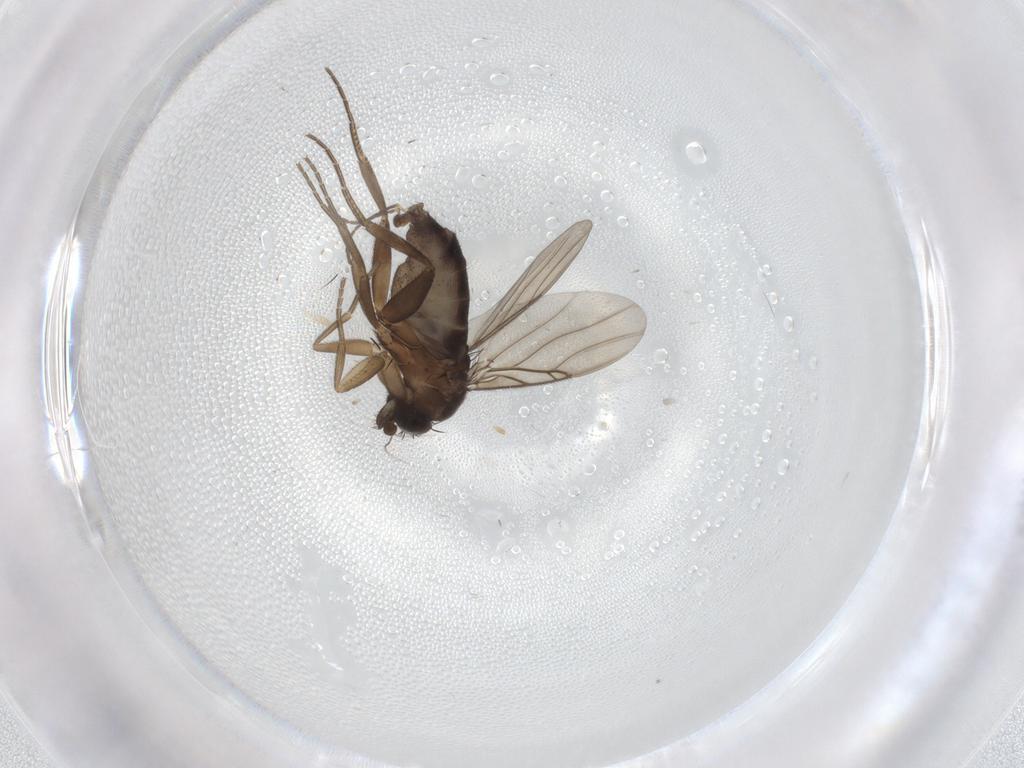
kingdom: Animalia
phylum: Arthropoda
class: Insecta
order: Diptera
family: Phoridae
